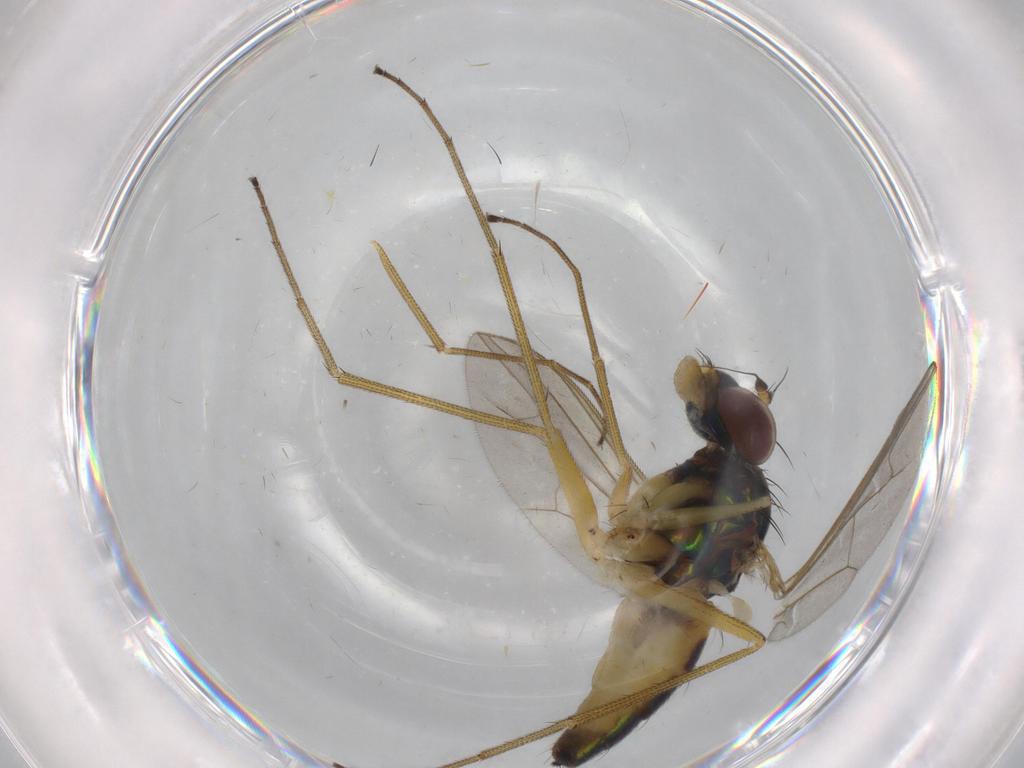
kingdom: Animalia
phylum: Arthropoda
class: Insecta
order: Diptera
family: Dolichopodidae
